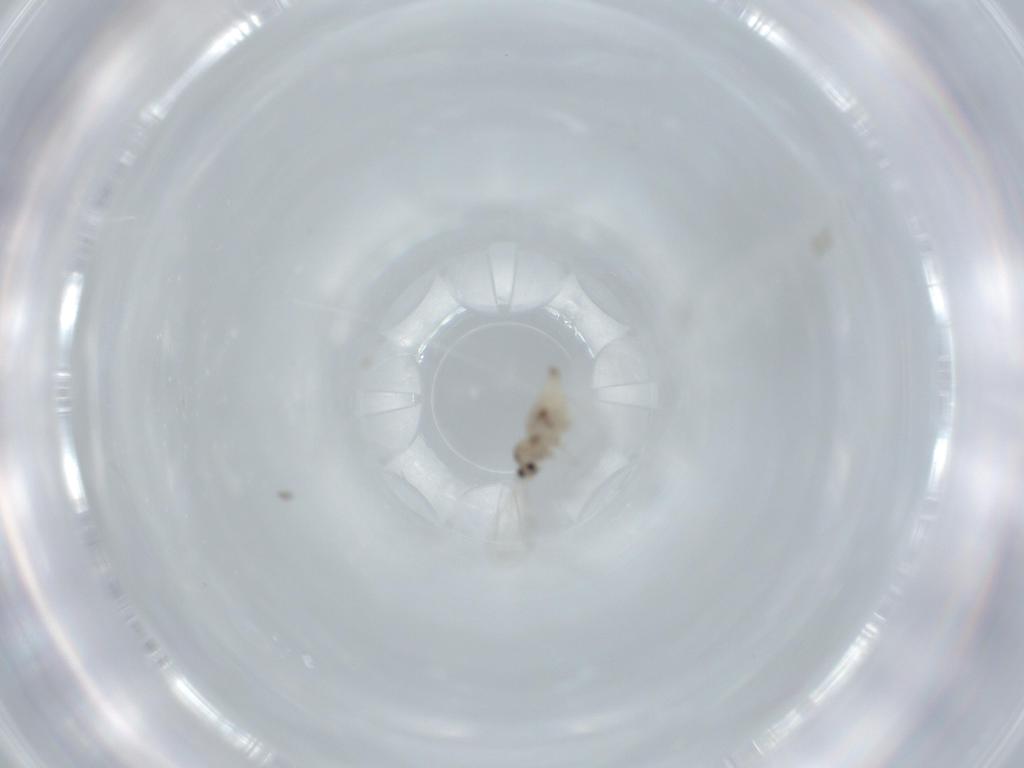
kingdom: Animalia
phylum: Arthropoda
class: Insecta
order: Diptera
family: Cecidomyiidae
